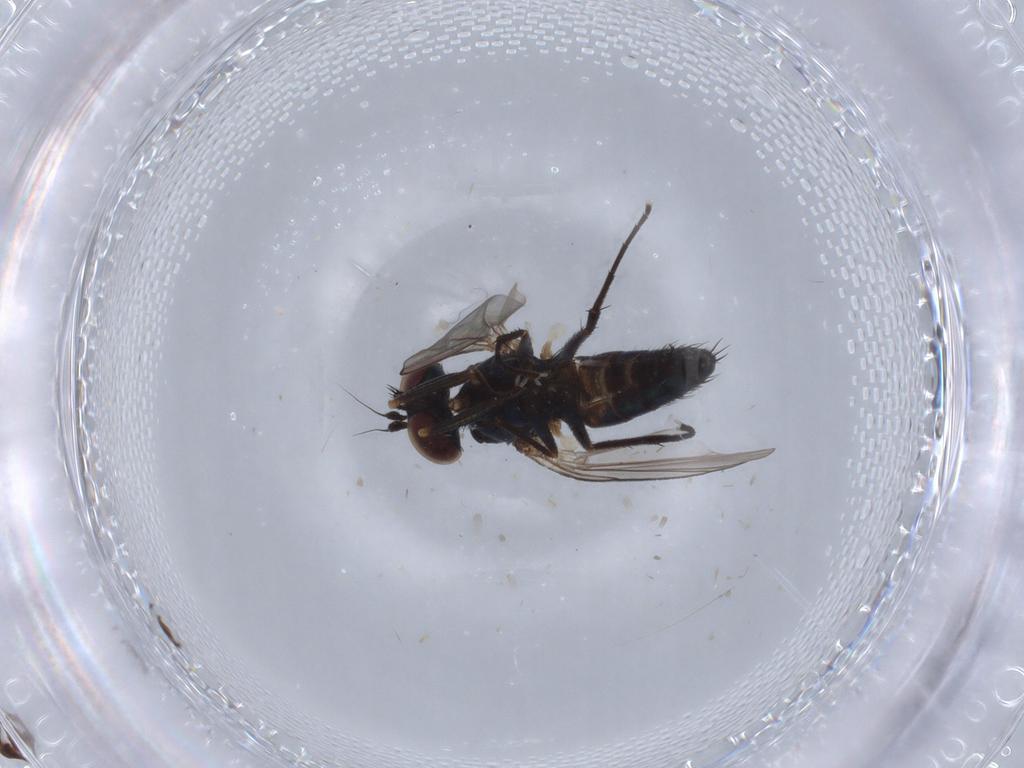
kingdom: Animalia
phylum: Arthropoda
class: Insecta
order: Diptera
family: Dolichopodidae
